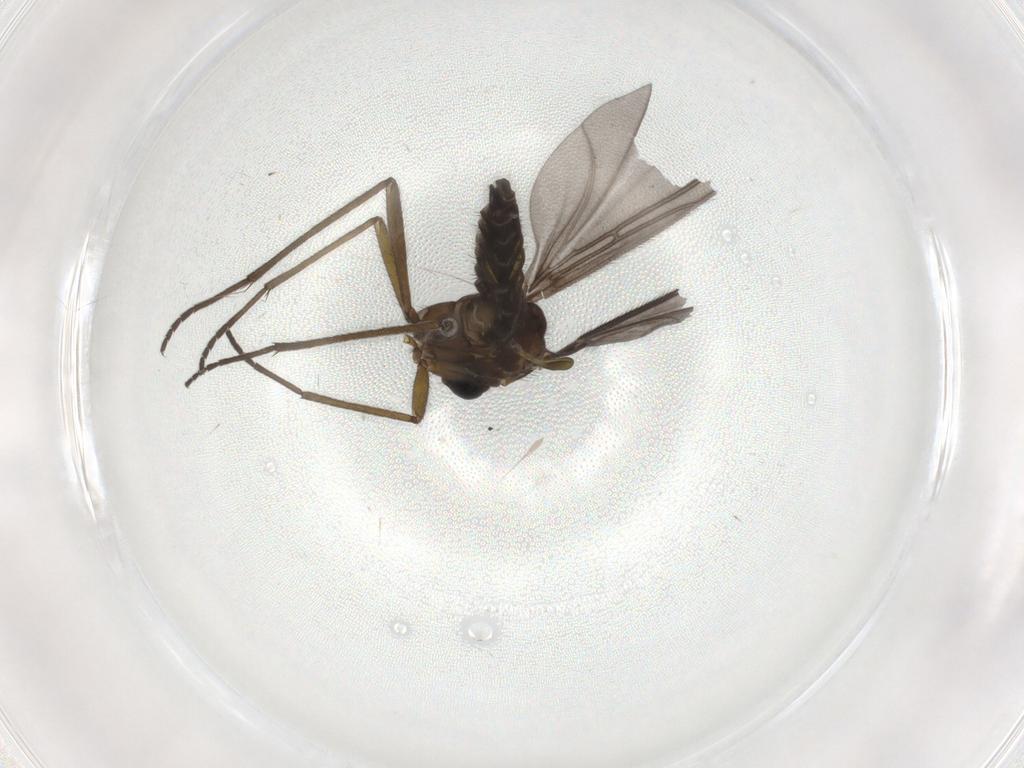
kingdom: Animalia
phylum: Arthropoda
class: Insecta
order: Diptera
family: Sciaridae
